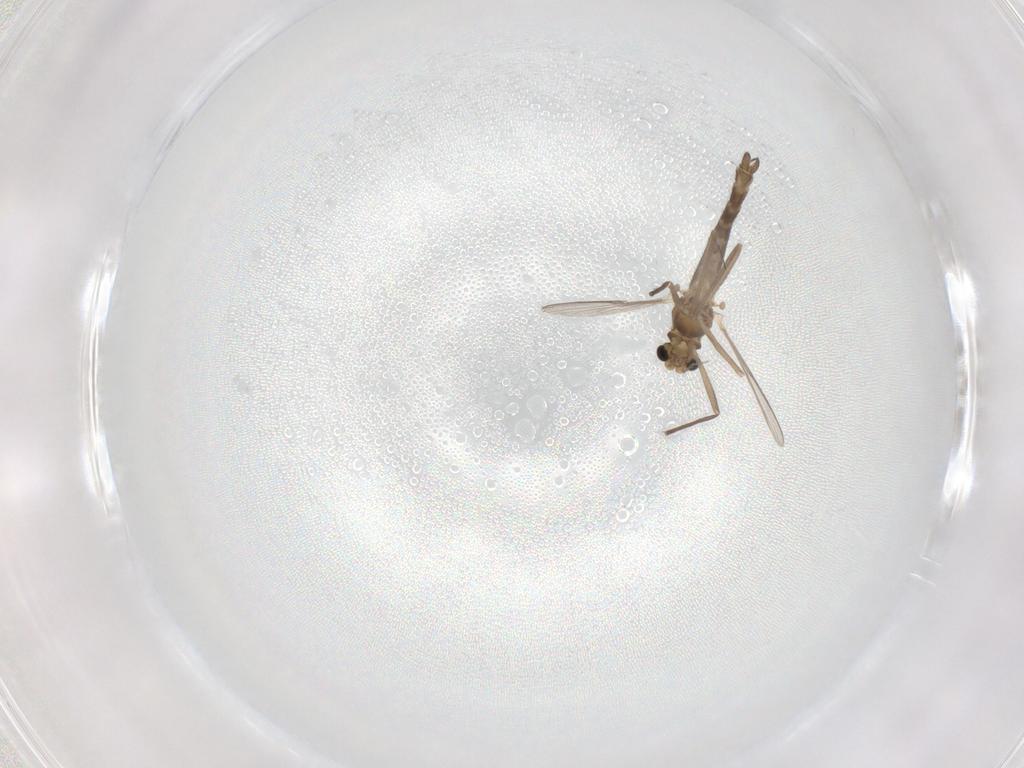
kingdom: Animalia
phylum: Arthropoda
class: Insecta
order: Diptera
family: Chironomidae
